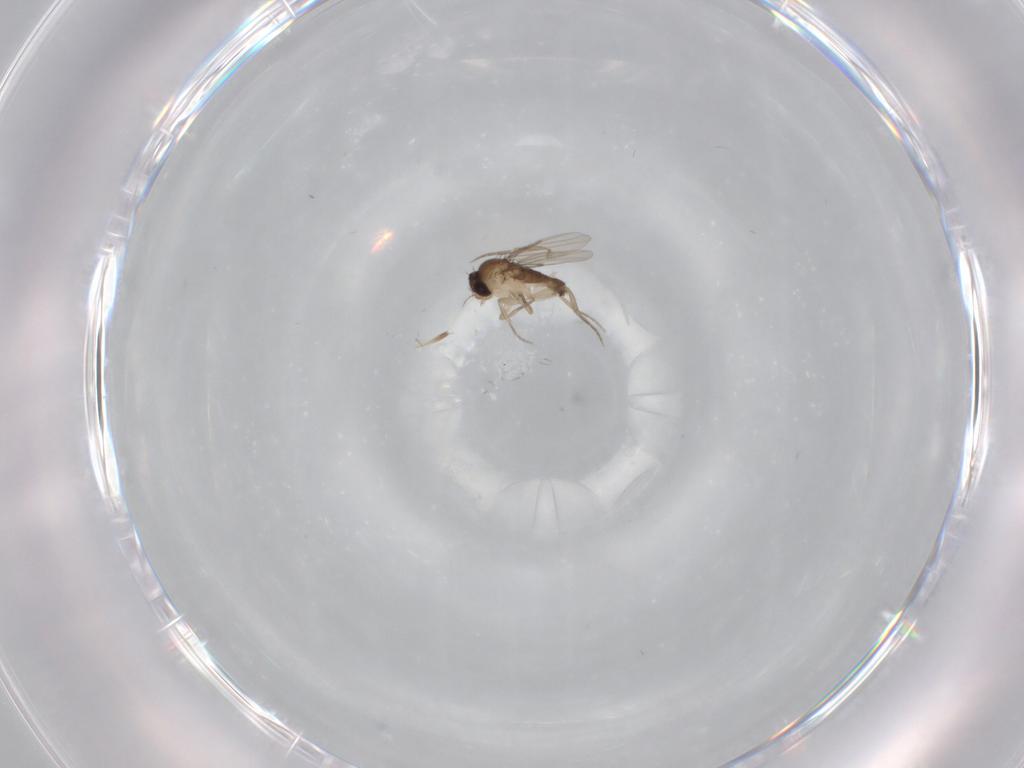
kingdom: Animalia
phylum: Arthropoda
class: Insecta
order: Diptera
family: Phoridae
